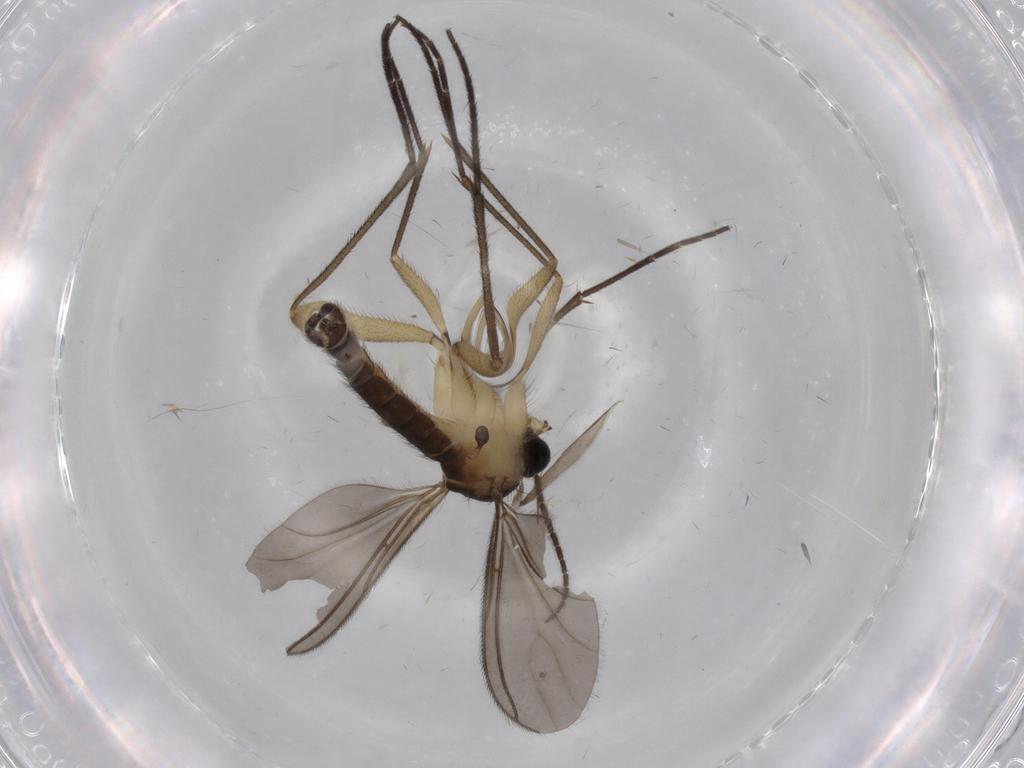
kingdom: Animalia
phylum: Arthropoda
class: Insecta
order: Diptera
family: Sciaridae
